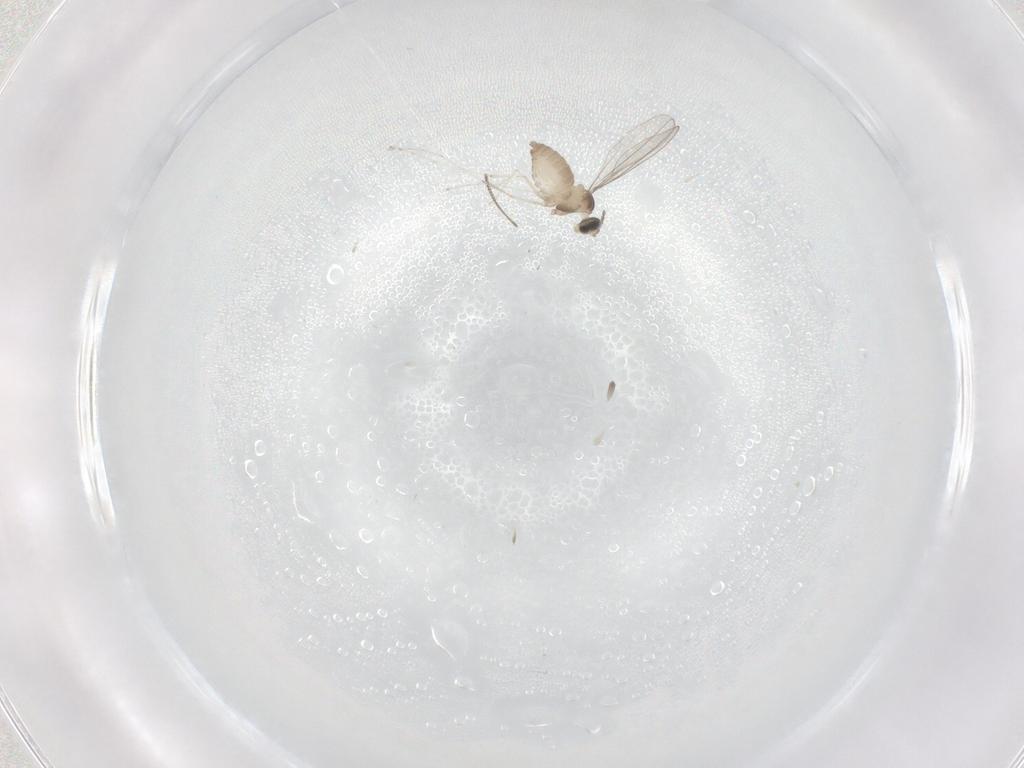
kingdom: Animalia
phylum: Arthropoda
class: Insecta
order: Diptera
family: Chironomidae
